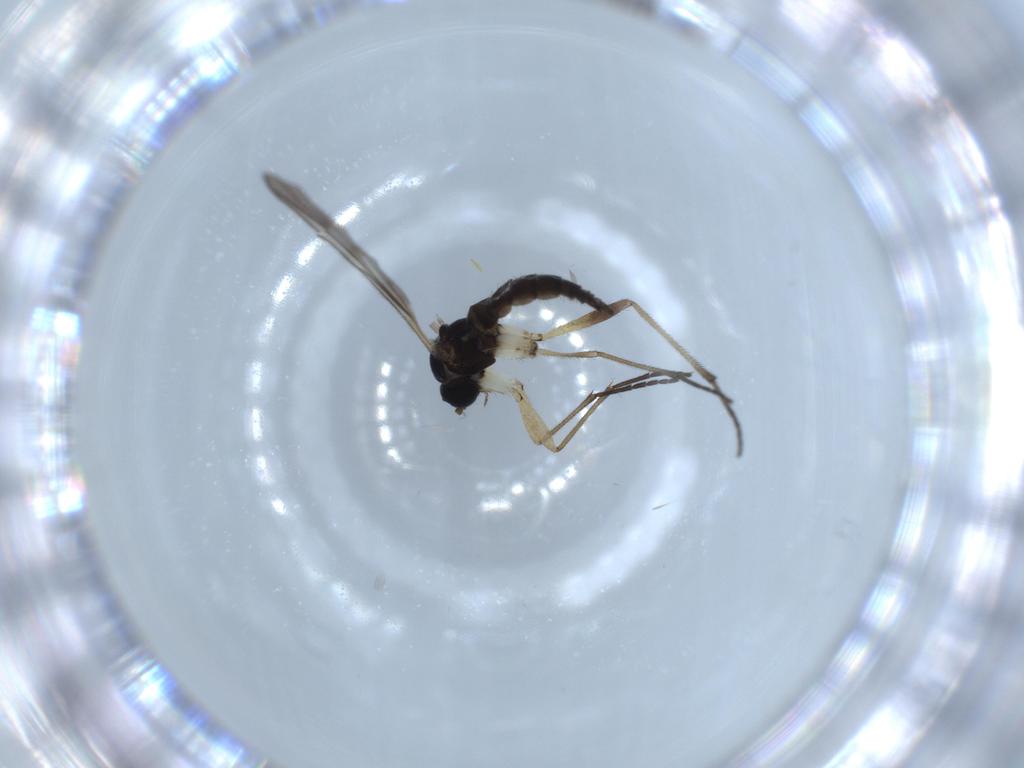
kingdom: Animalia
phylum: Arthropoda
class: Insecta
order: Diptera
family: Sciaridae
